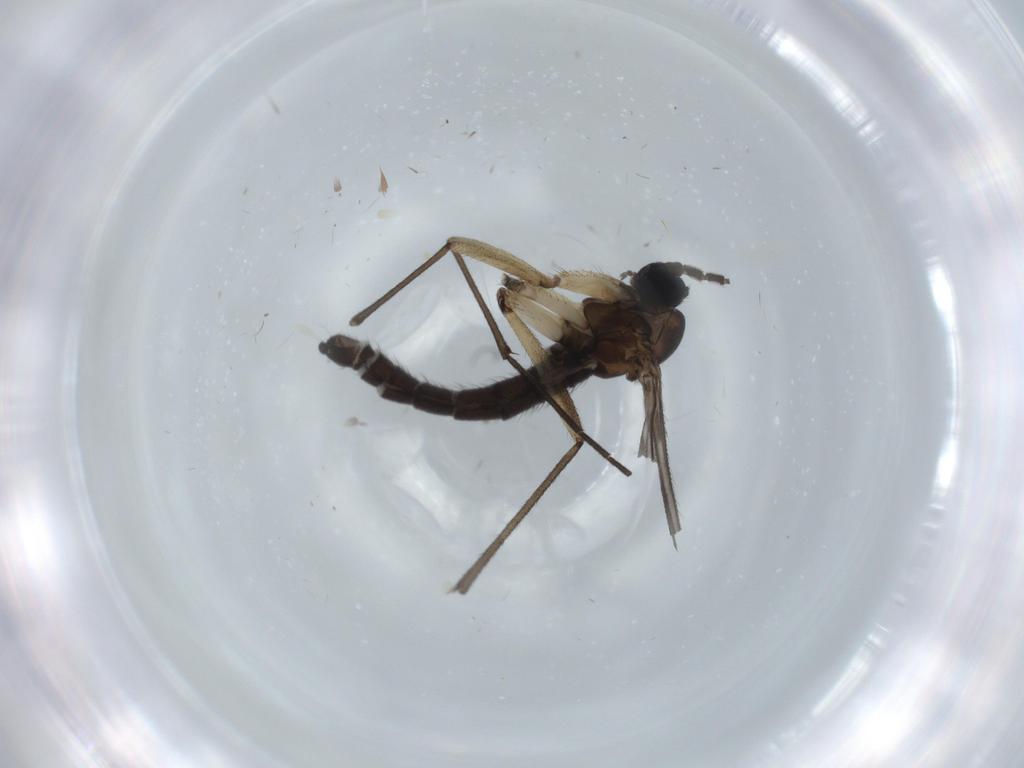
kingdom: Animalia
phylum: Arthropoda
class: Insecta
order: Diptera
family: Sciaridae
